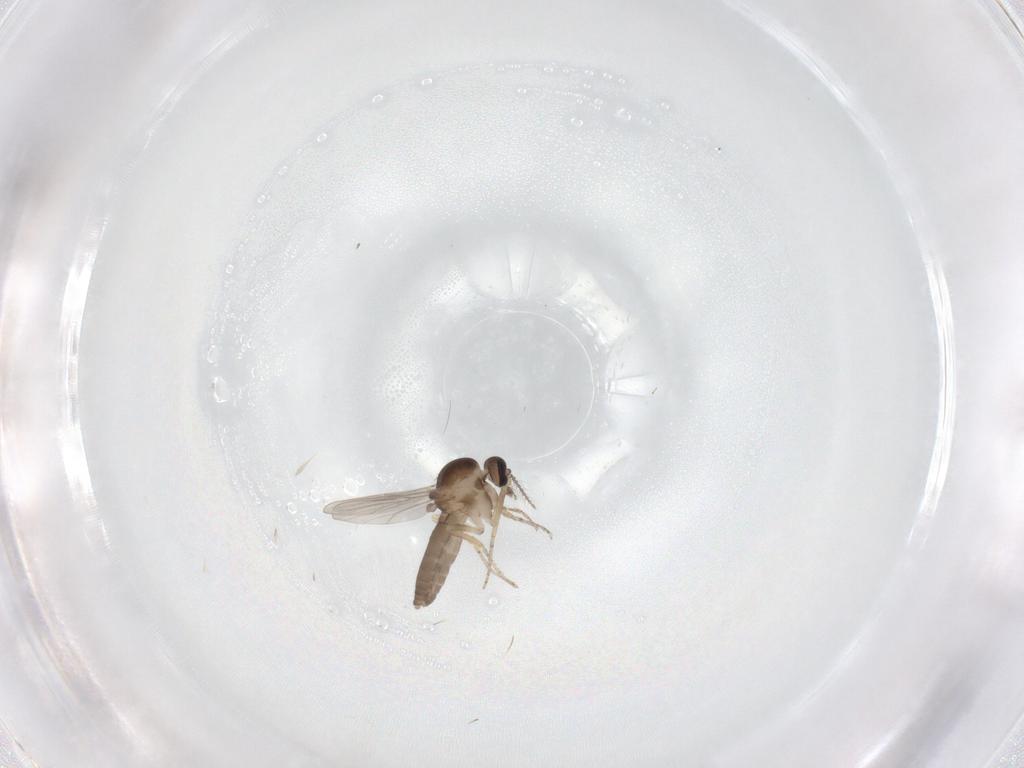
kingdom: Animalia
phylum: Arthropoda
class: Insecta
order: Diptera
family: Ceratopogonidae
